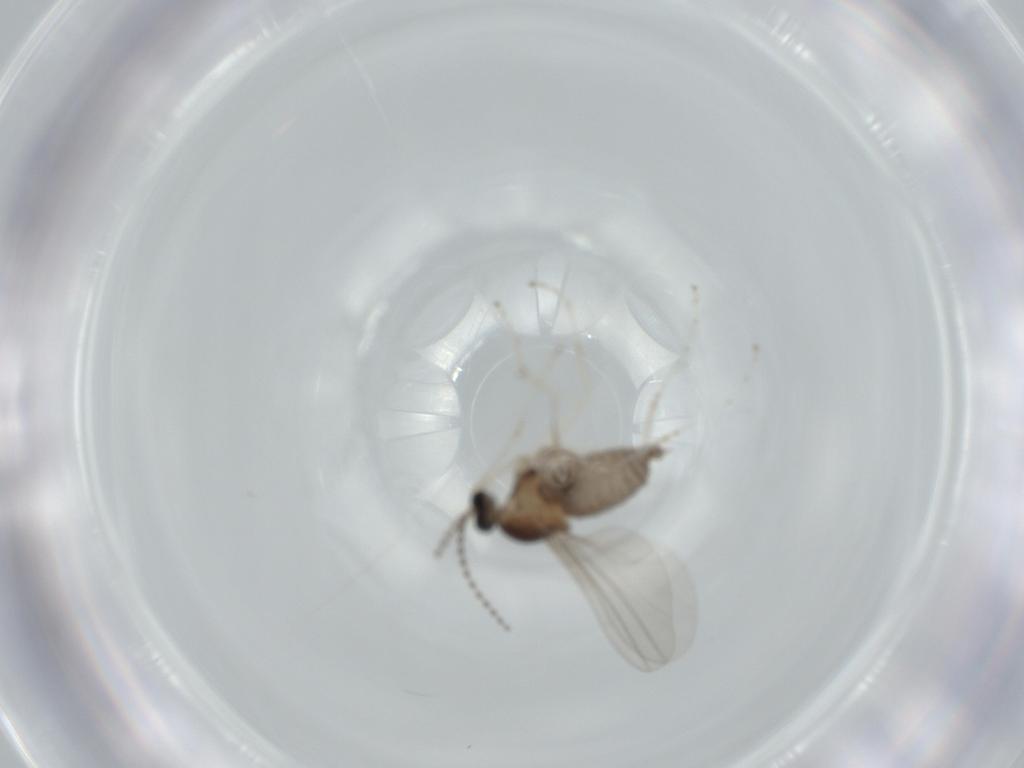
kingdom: Animalia
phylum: Arthropoda
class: Insecta
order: Diptera
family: Cecidomyiidae
